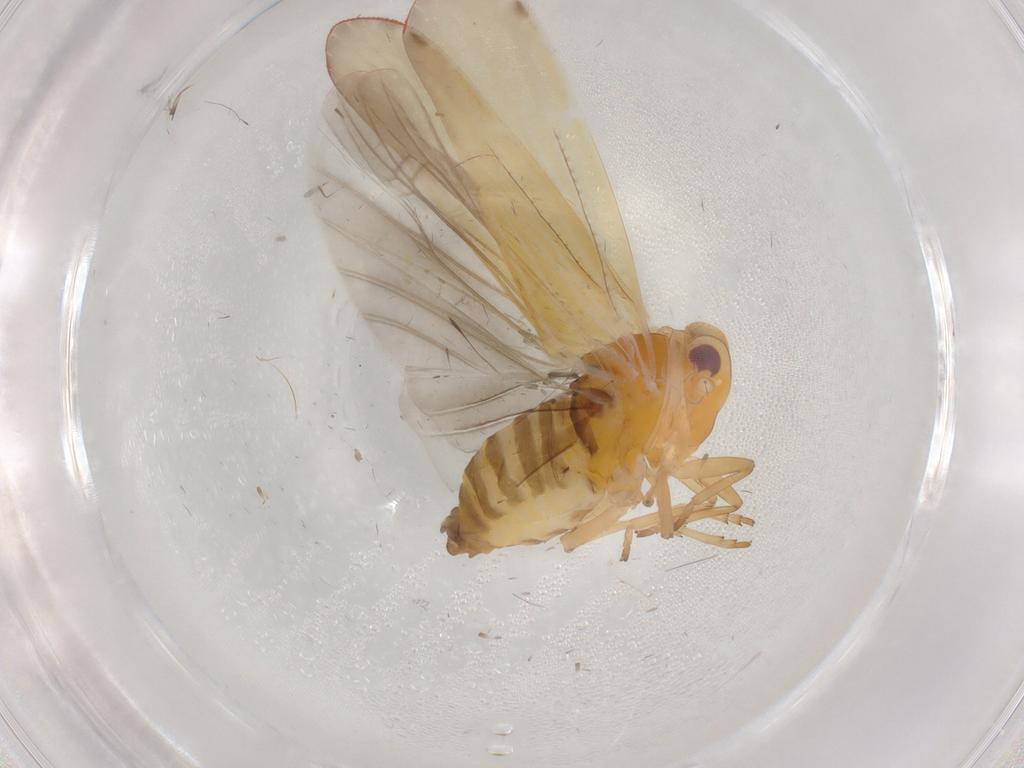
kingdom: Animalia
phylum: Arthropoda
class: Insecta
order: Hemiptera
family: Derbidae
